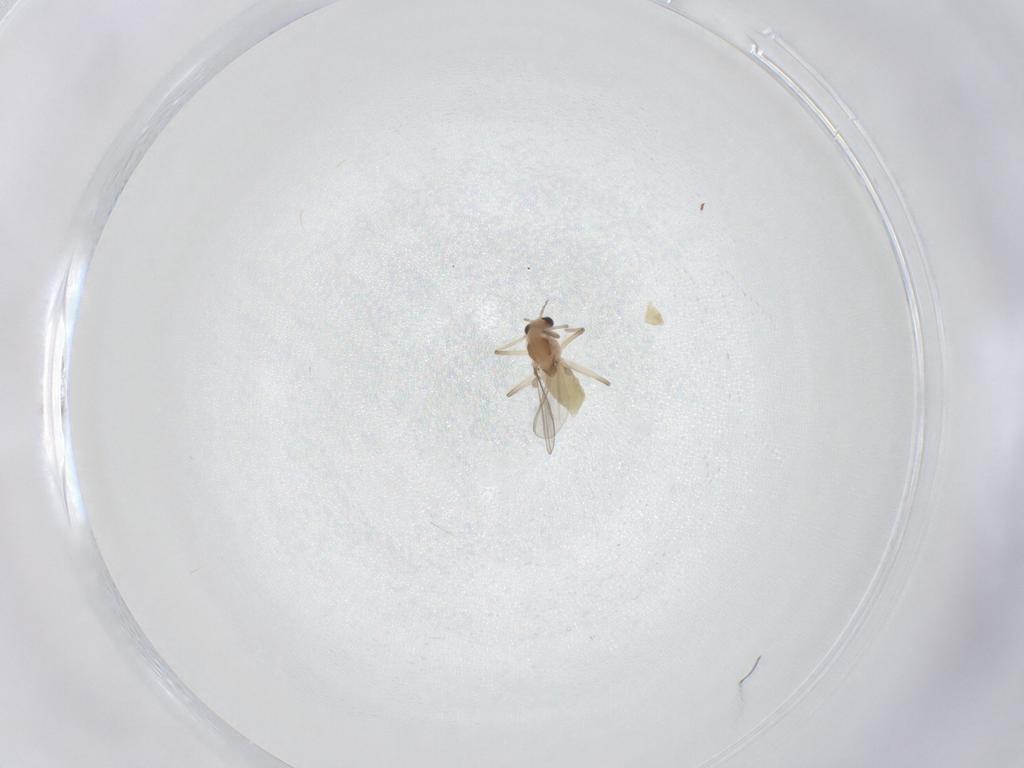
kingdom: Animalia
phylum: Arthropoda
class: Insecta
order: Diptera
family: Chironomidae
